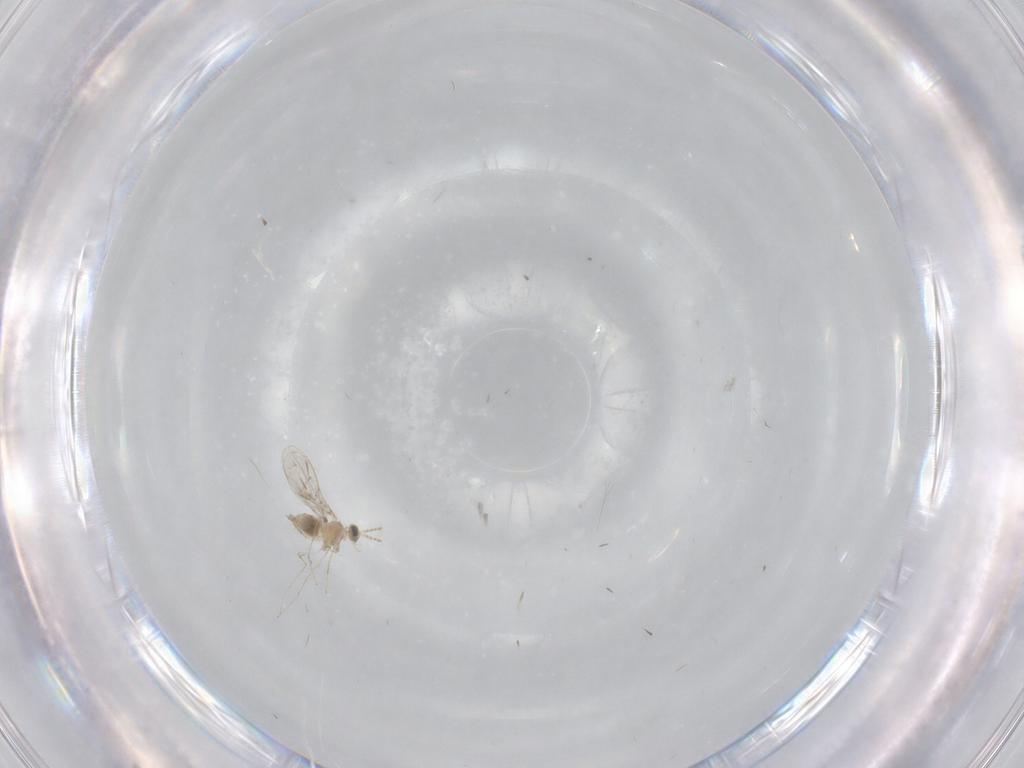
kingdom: Animalia
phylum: Arthropoda
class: Insecta
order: Diptera
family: Cecidomyiidae
